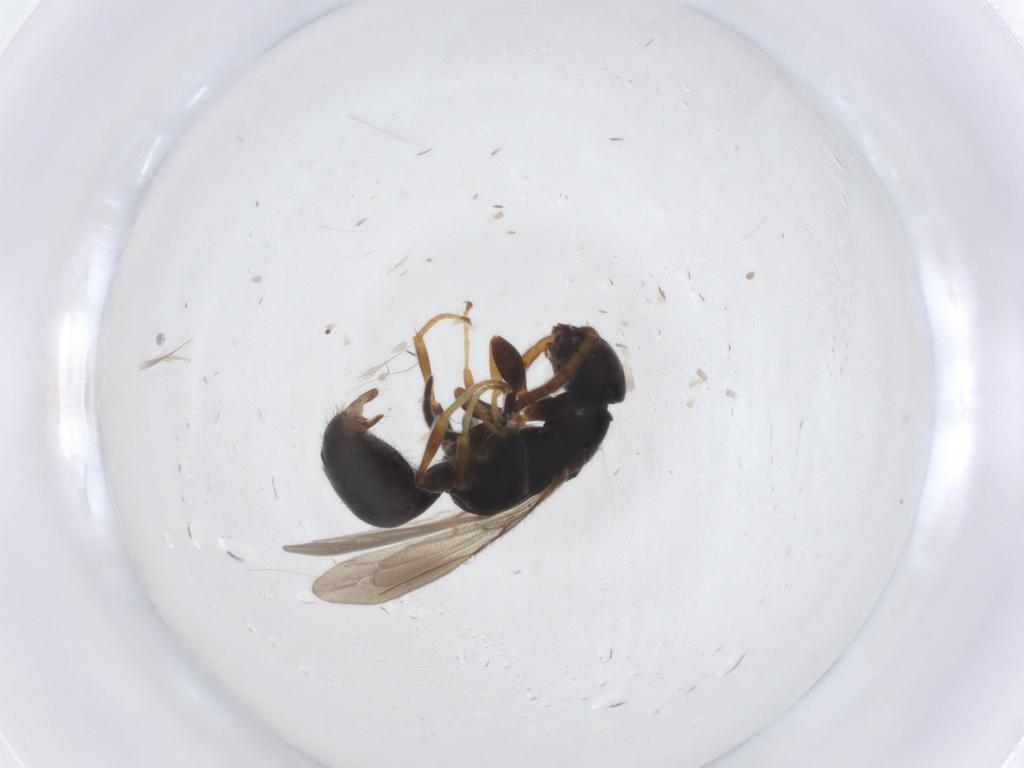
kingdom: Animalia
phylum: Arthropoda
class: Insecta
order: Hymenoptera
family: Bethylidae
